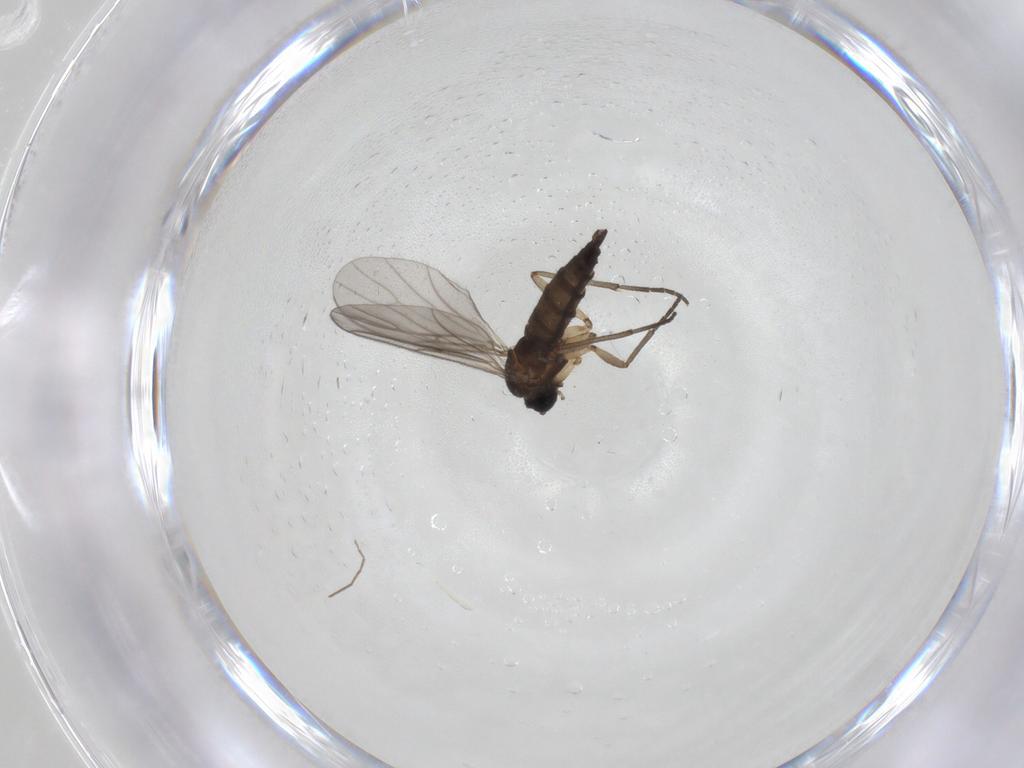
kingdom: Animalia
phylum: Arthropoda
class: Insecta
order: Diptera
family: Sciaridae
